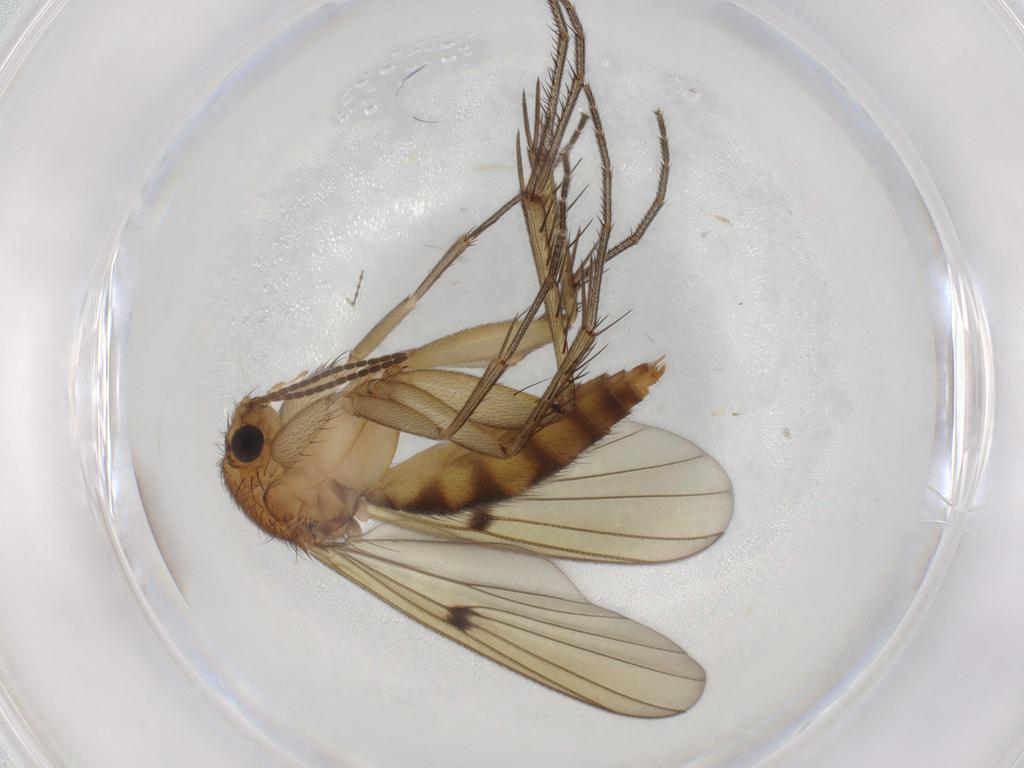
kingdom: Animalia
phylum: Arthropoda
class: Insecta
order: Diptera
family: Mycetophilidae
